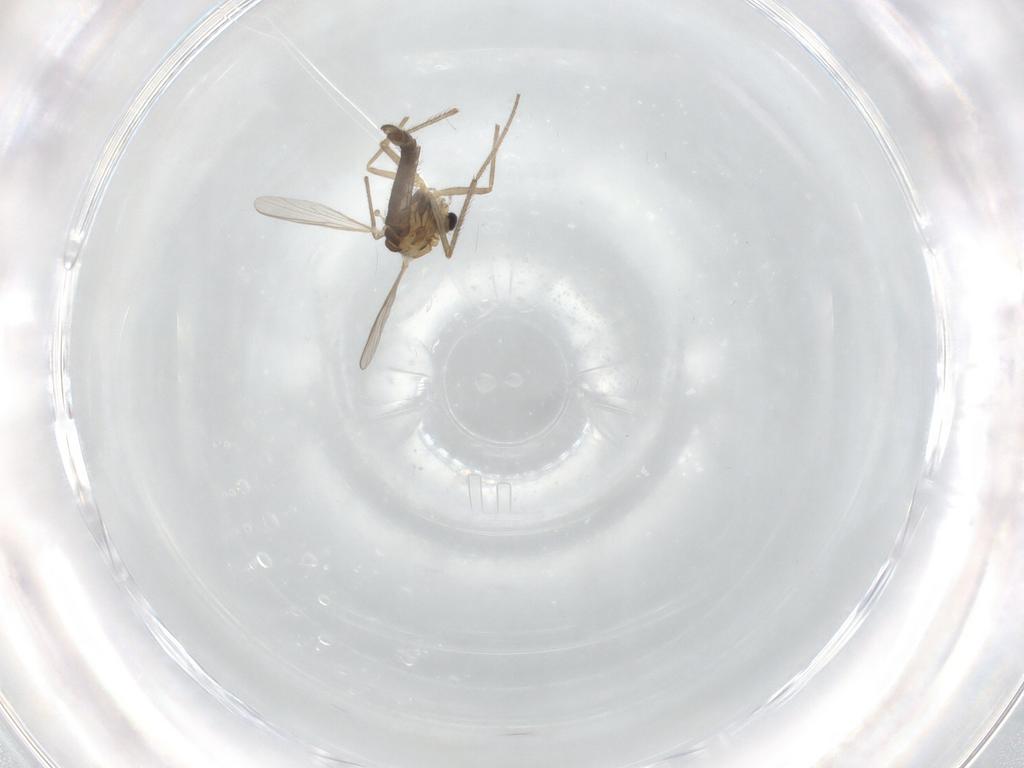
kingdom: Animalia
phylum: Arthropoda
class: Insecta
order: Diptera
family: Chironomidae
